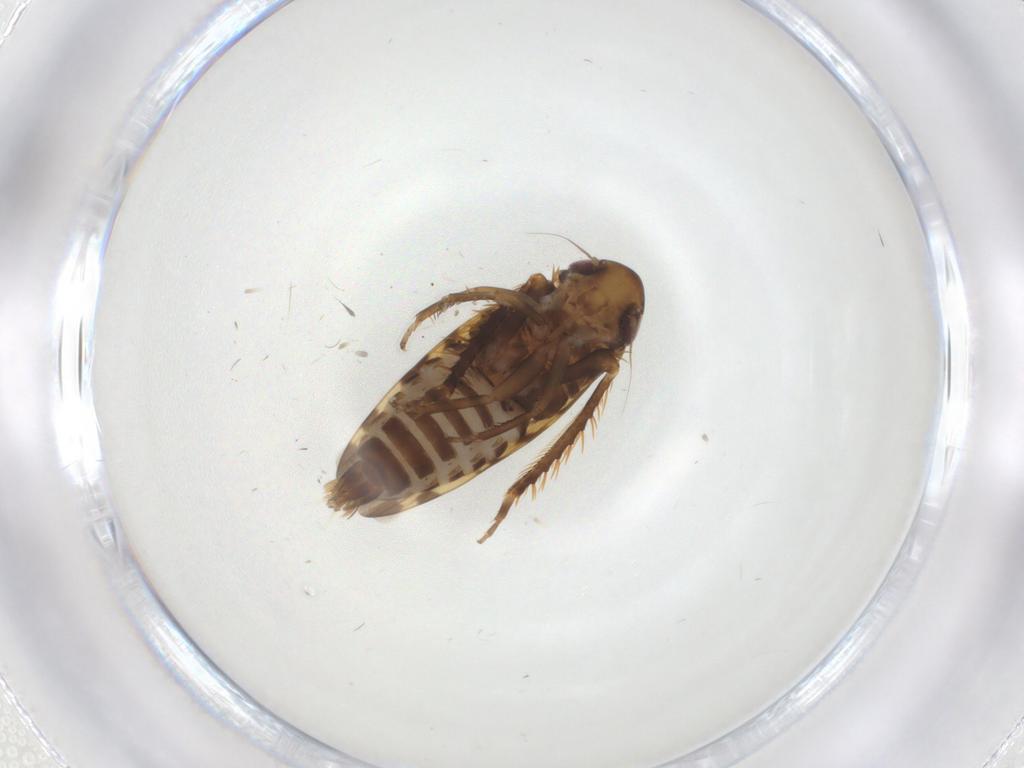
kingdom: Animalia
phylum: Arthropoda
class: Insecta
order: Hemiptera
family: Cicadellidae
